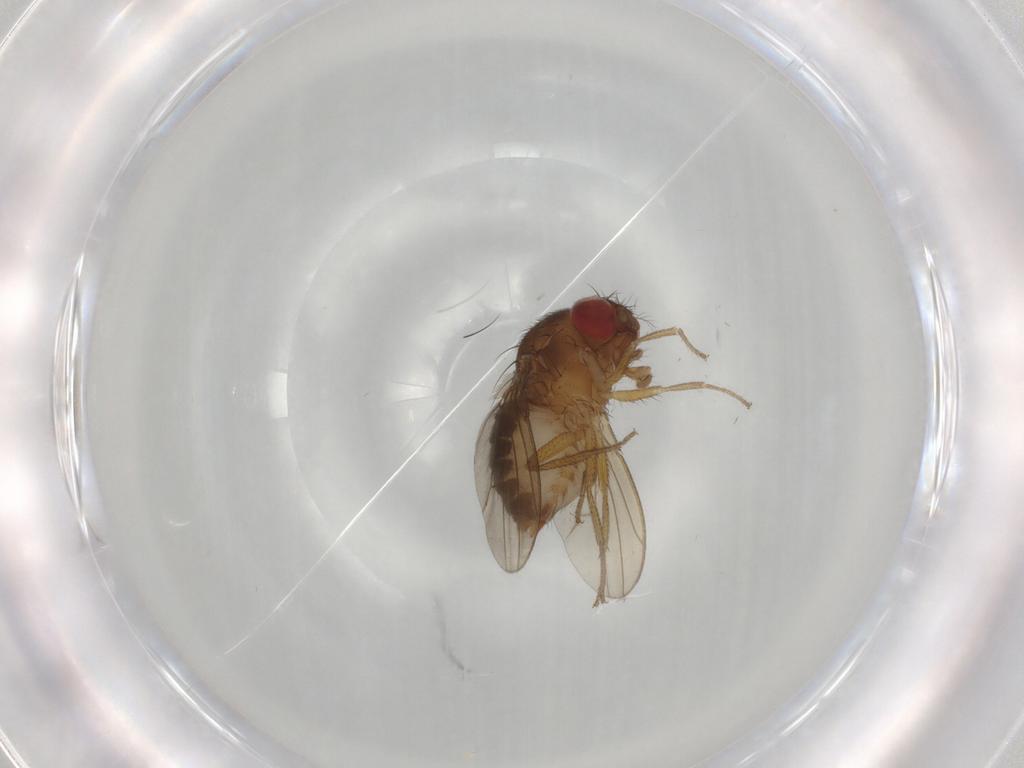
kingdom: Animalia
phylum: Arthropoda
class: Insecta
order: Diptera
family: Drosophilidae
